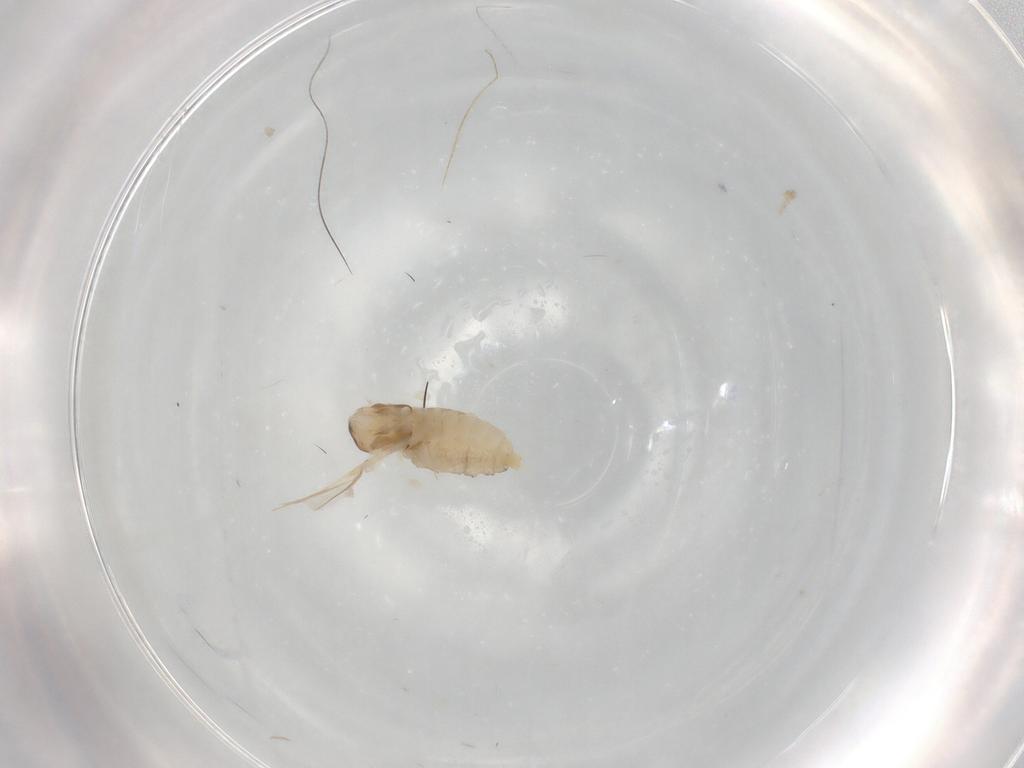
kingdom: Animalia
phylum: Arthropoda
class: Insecta
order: Diptera
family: Cecidomyiidae
